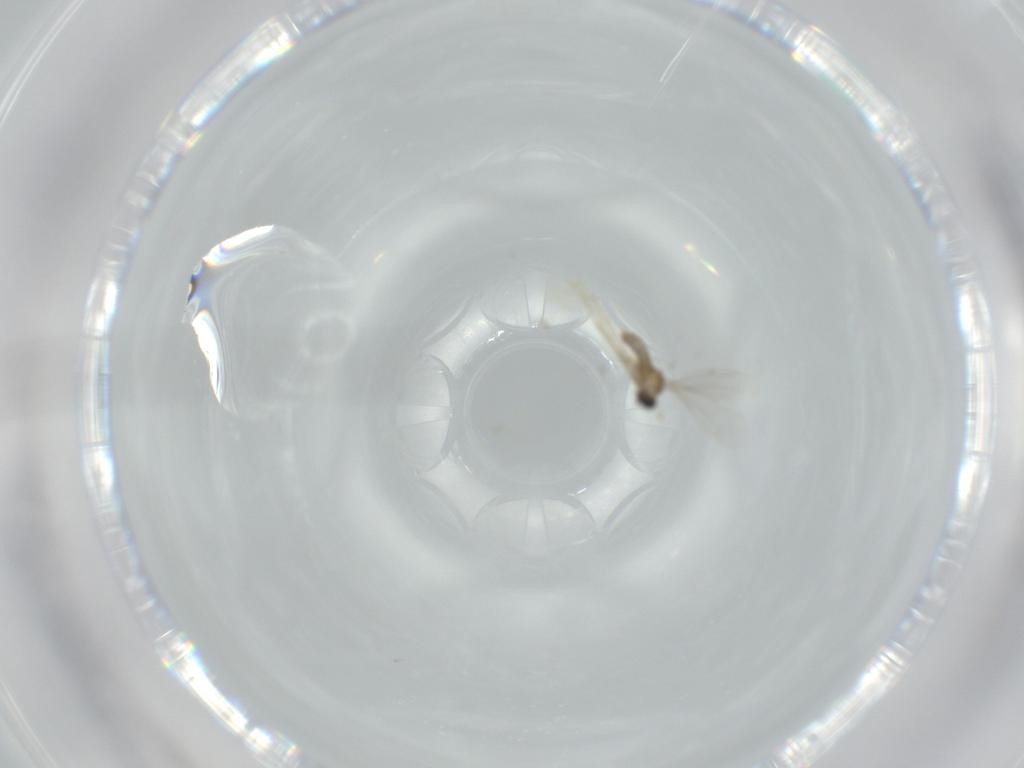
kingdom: Animalia
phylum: Arthropoda
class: Insecta
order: Diptera
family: Cecidomyiidae
